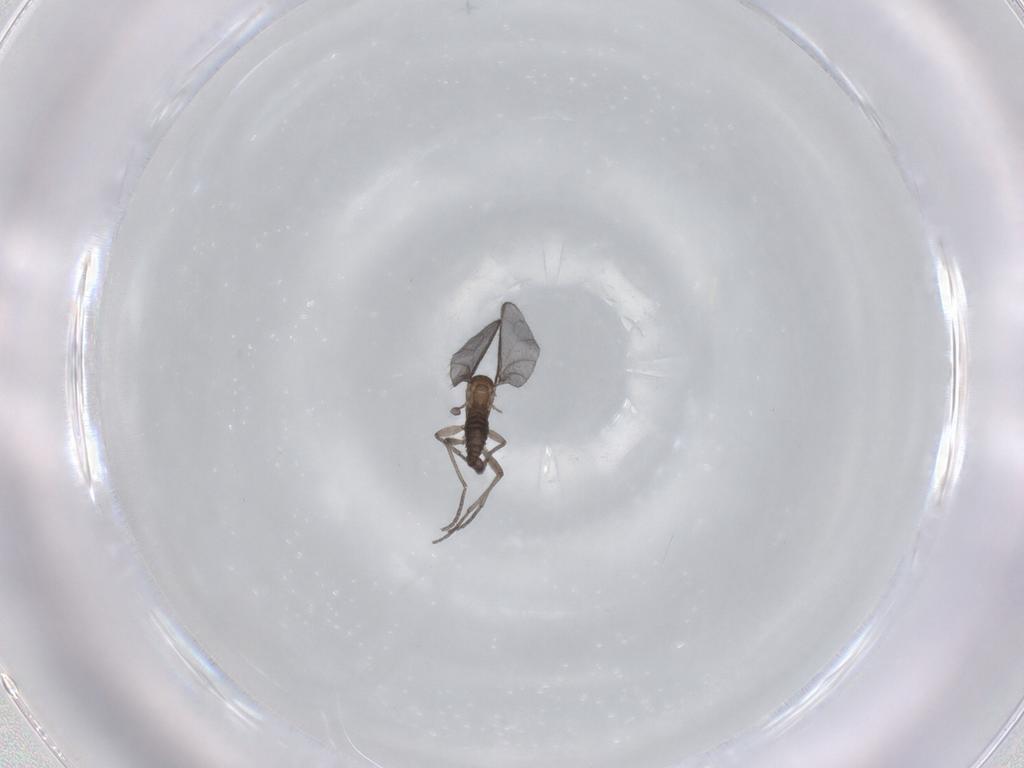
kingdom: Animalia
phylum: Arthropoda
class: Insecta
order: Diptera
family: Sciaridae
